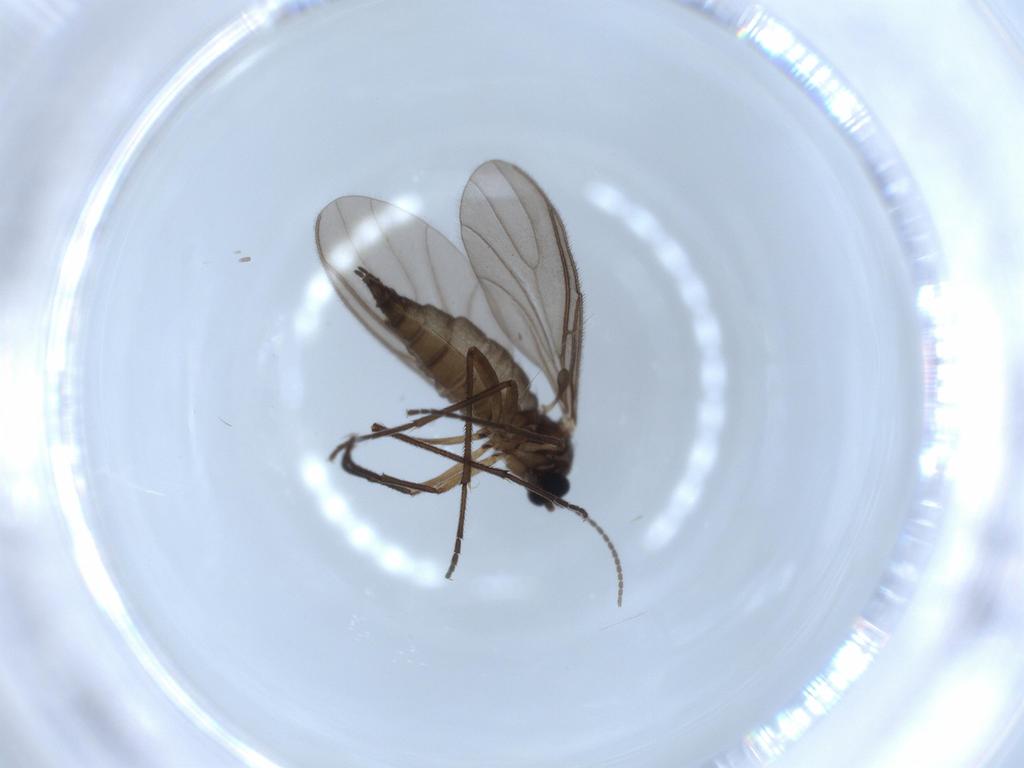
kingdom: Animalia
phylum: Arthropoda
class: Insecta
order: Diptera
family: Sciaridae
